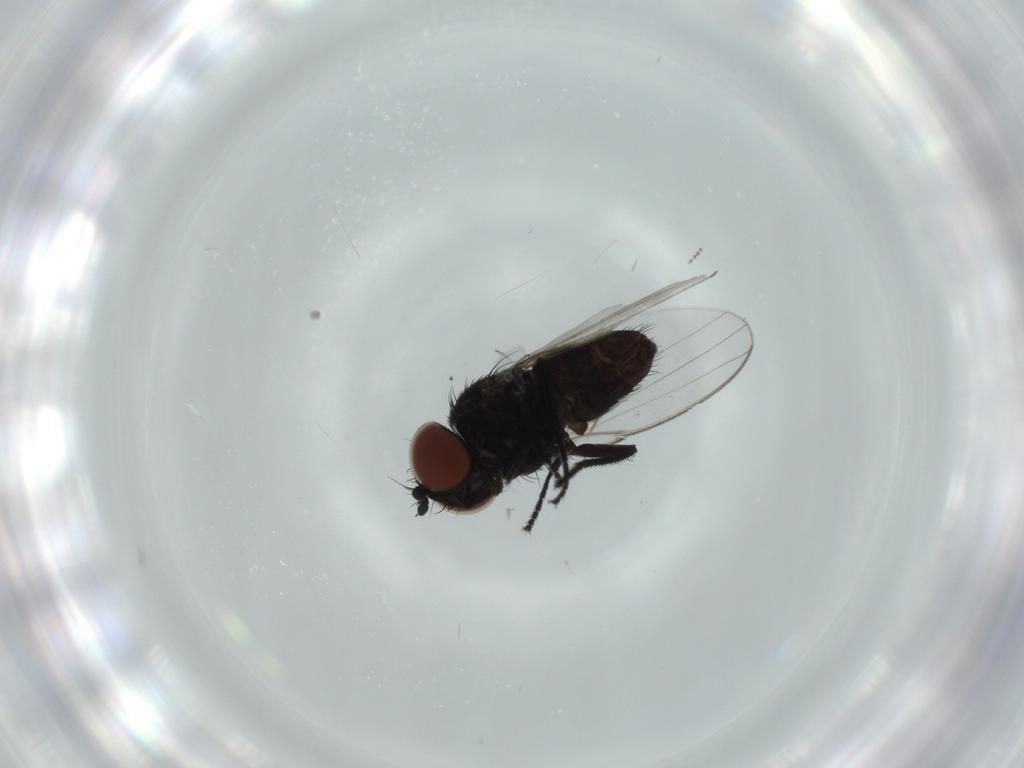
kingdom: Animalia
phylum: Arthropoda
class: Insecta
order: Diptera
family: Milichiidae
